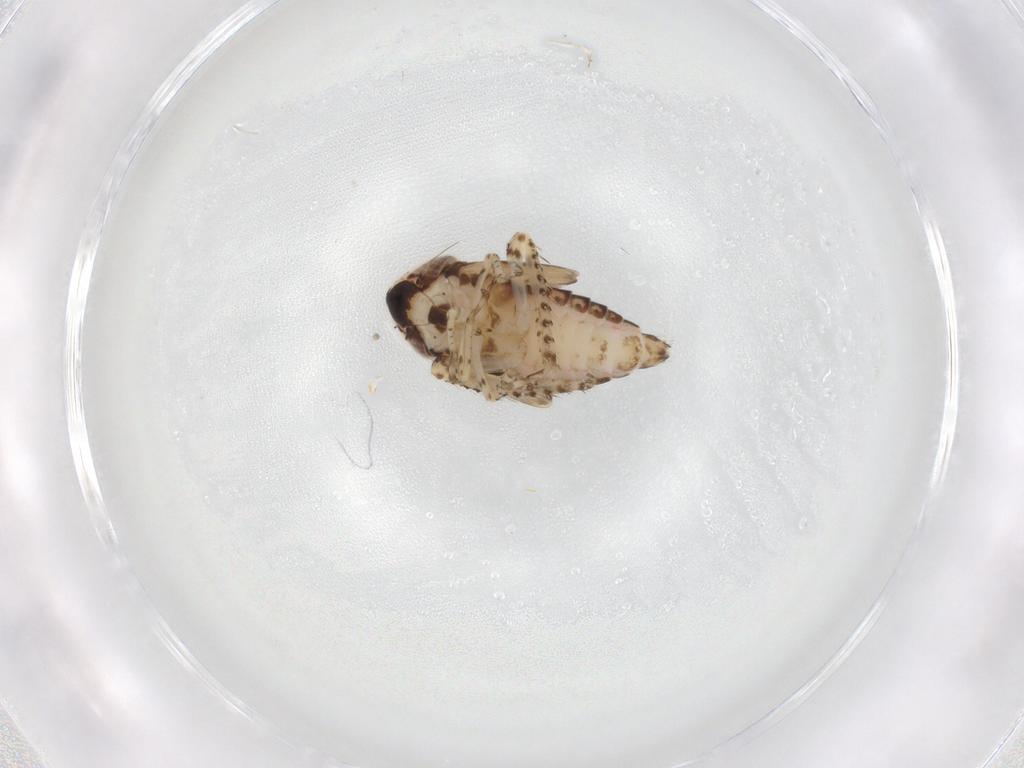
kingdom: Animalia
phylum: Arthropoda
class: Insecta
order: Hemiptera
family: Cicadellidae
